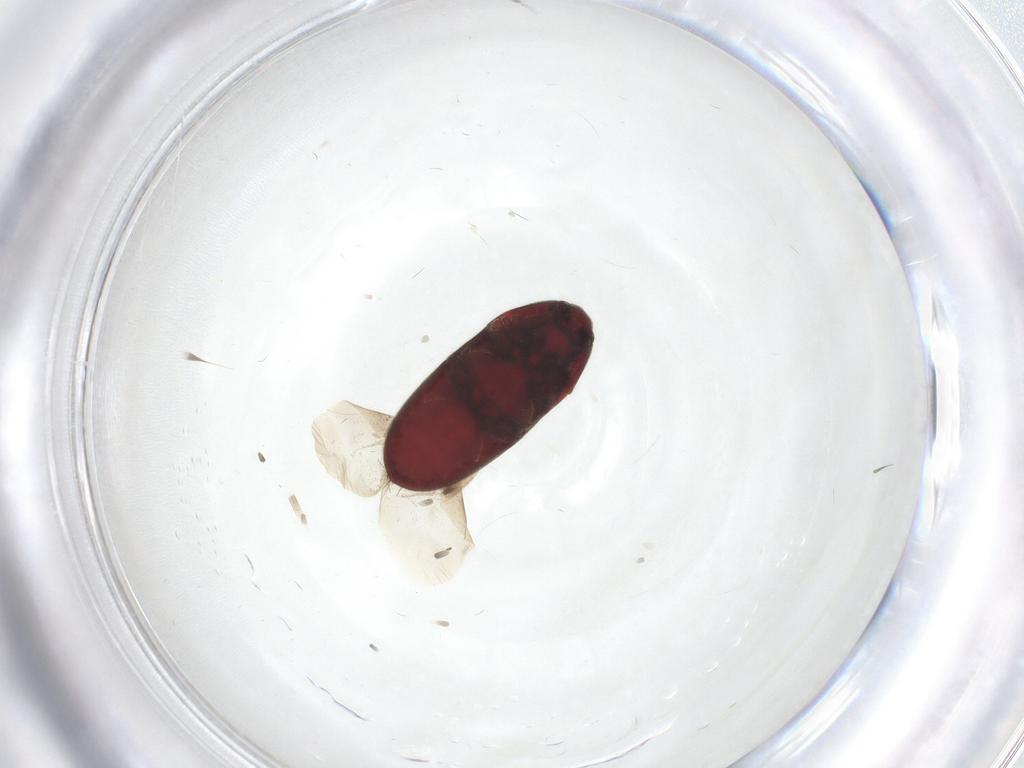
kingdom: Animalia
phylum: Arthropoda
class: Insecta
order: Coleoptera
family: Throscidae
